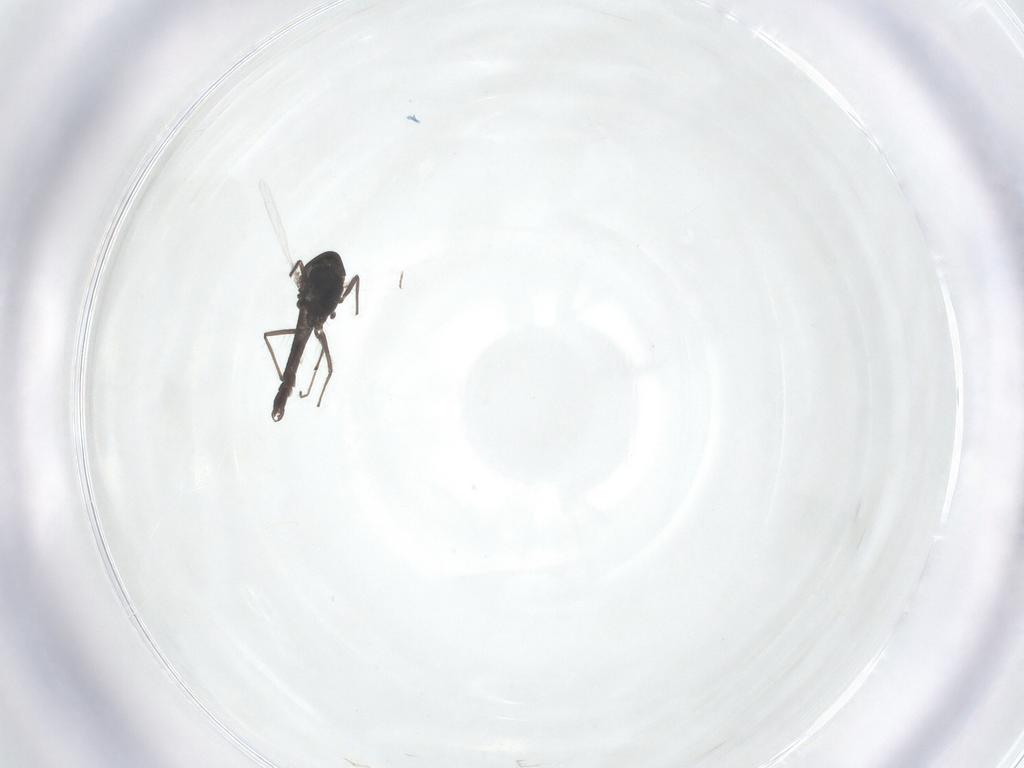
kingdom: Animalia
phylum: Arthropoda
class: Insecta
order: Diptera
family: Chironomidae
